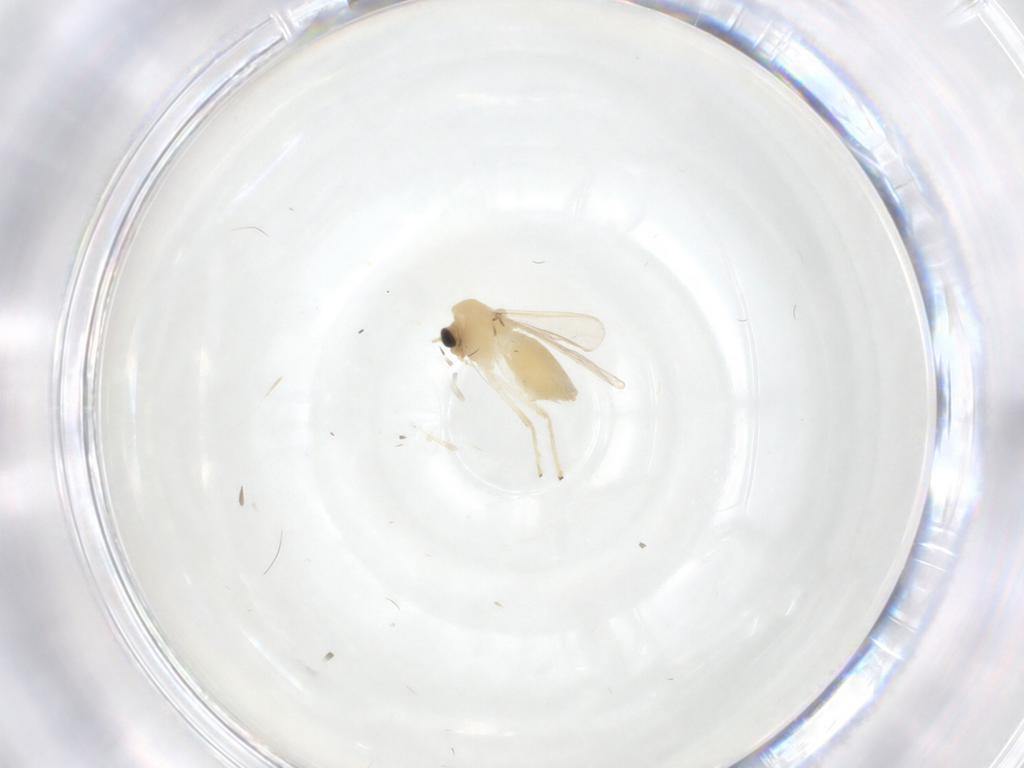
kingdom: Animalia
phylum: Arthropoda
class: Insecta
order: Diptera
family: Chironomidae
